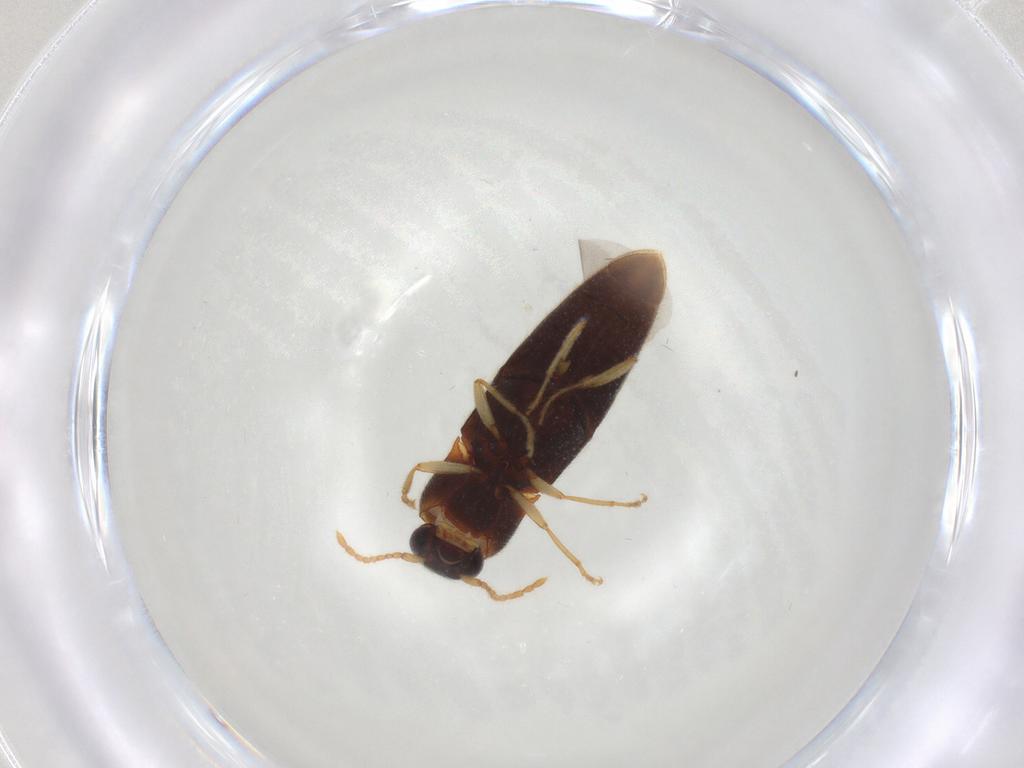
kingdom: Animalia
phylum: Arthropoda
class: Insecta
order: Coleoptera
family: Elateridae
